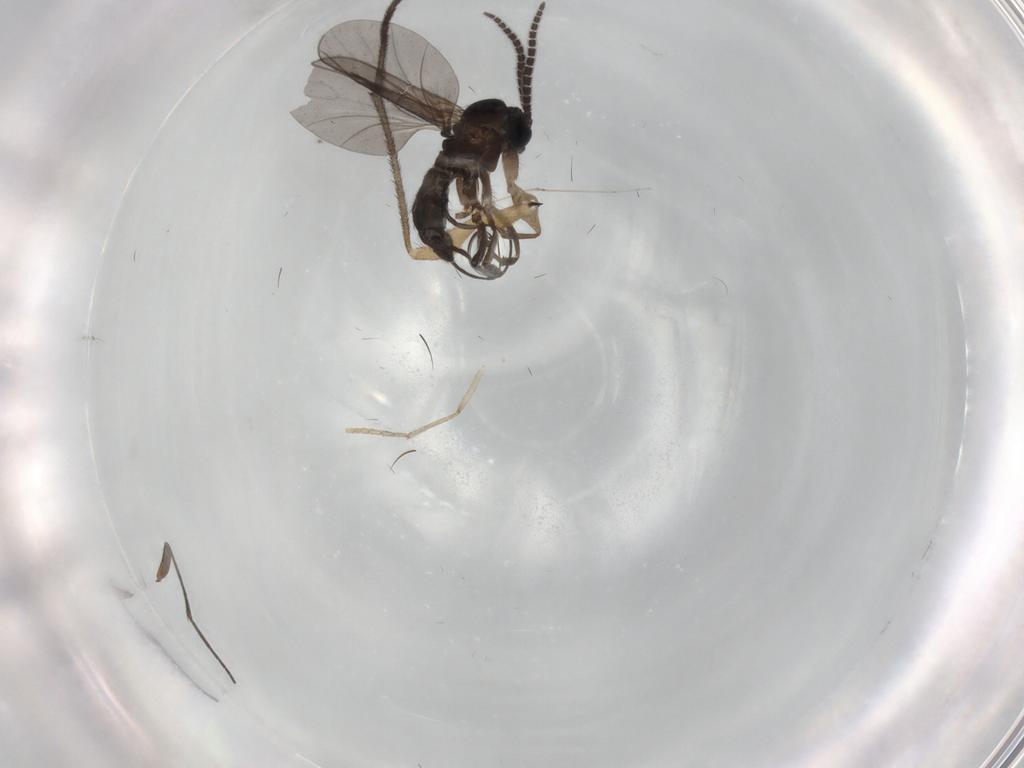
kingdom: Animalia
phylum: Arthropoda
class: Insecta
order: Diptera
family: Sciaridae
